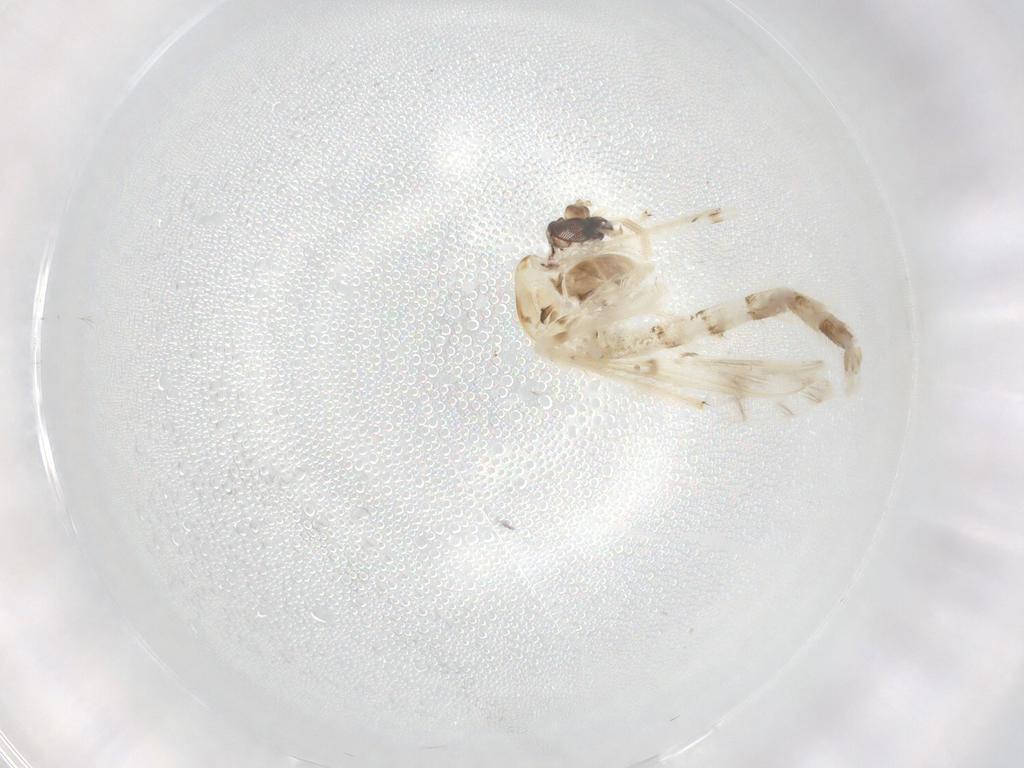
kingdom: Animalia
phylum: Arthropoda
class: Insecta
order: Diptera
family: Chironomidae
